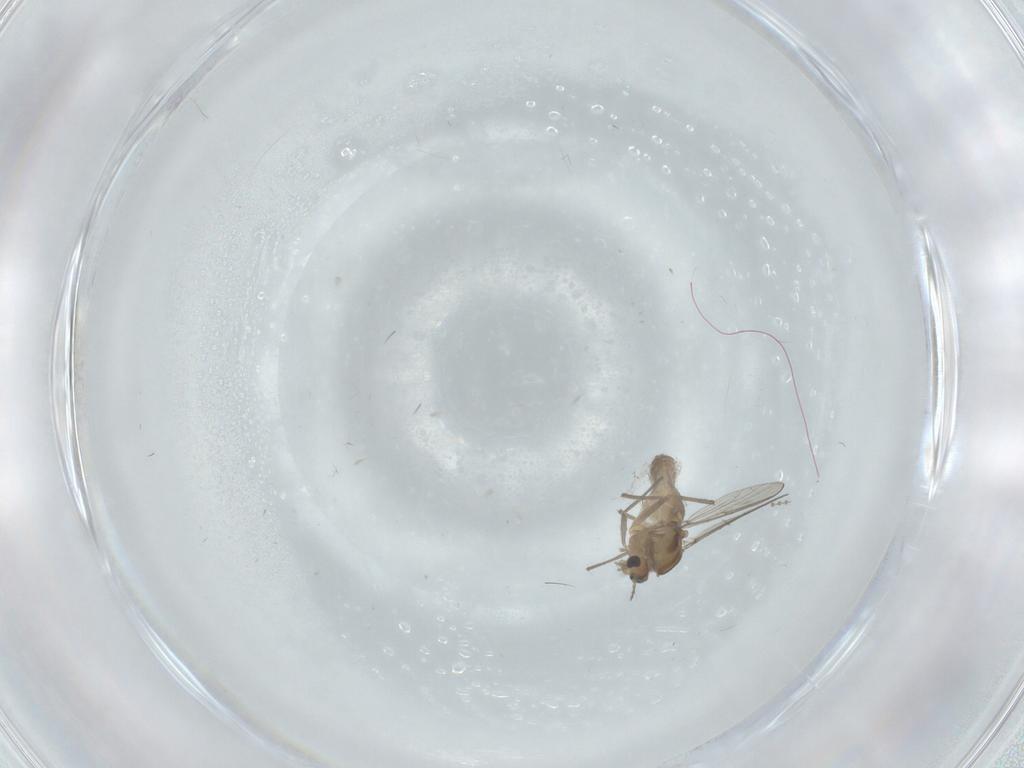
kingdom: Animalia
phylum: Arthropoda
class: Insecta
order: Diptera
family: Chironomidae
